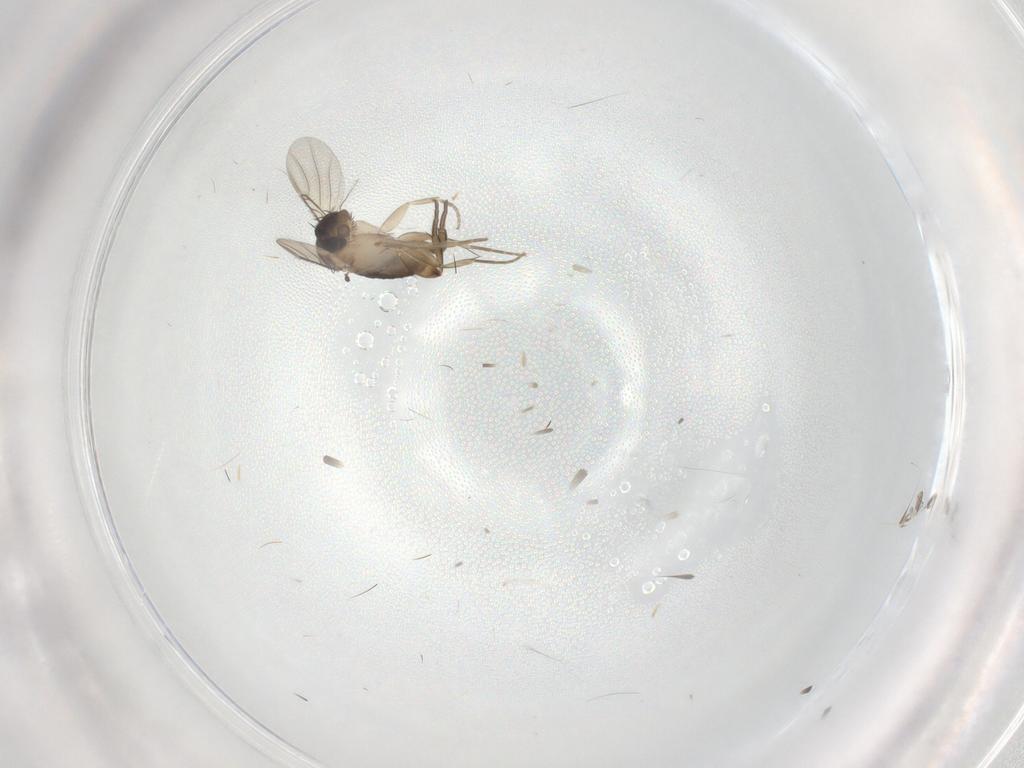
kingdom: Animalia
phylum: Arthropoda
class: Insecta
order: Diptera
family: Phoridae
